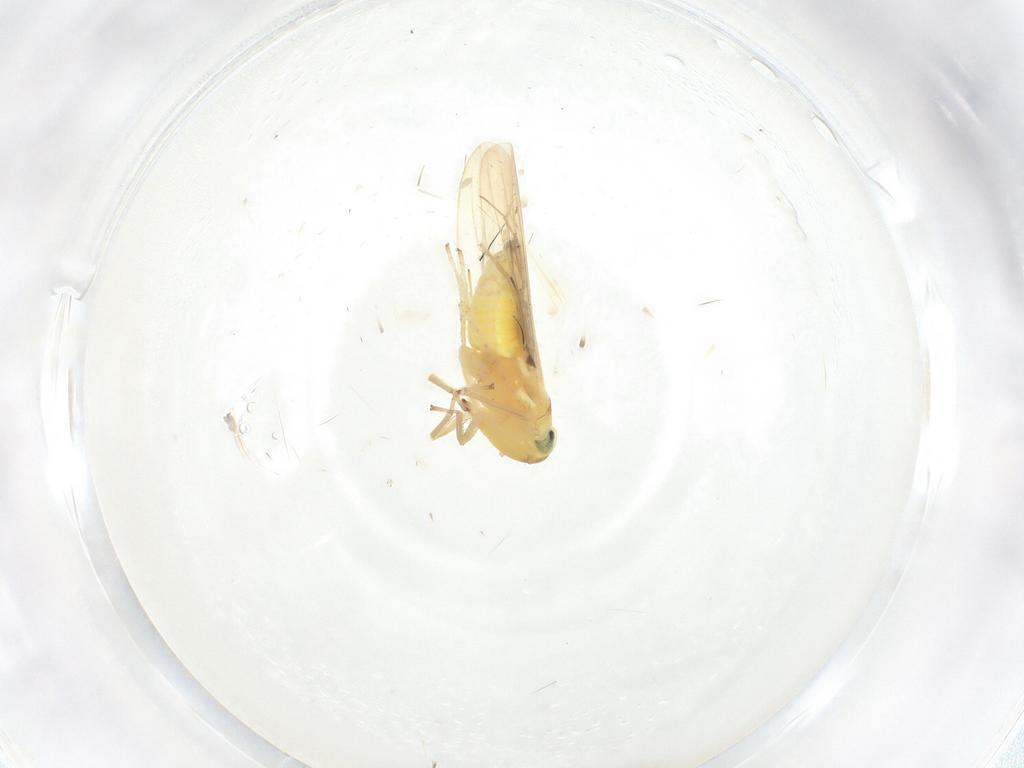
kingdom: Animalia
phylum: Arthropoda
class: Insecta
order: Hemiptera
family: Cicadellidae
